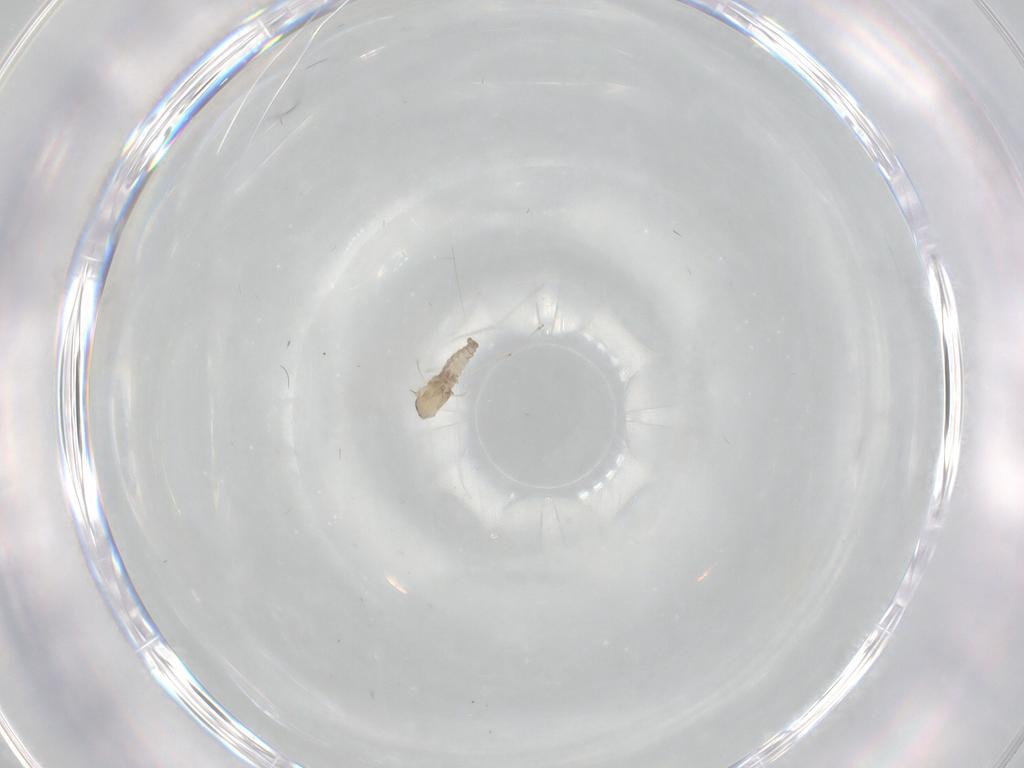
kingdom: Animalia
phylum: Arthropoda
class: Insecta
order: Diptera
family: Cecidomyiidae
